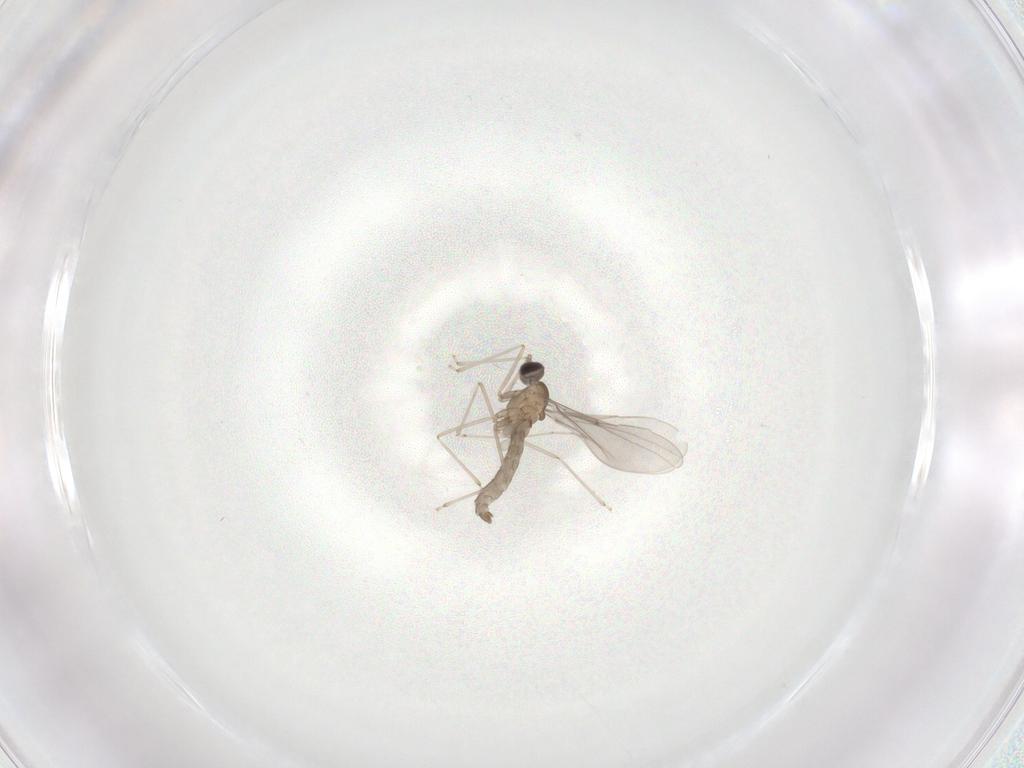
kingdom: Animalia
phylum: Arthropoda
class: Insecta
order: Diptera
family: Cecidomyiidae
